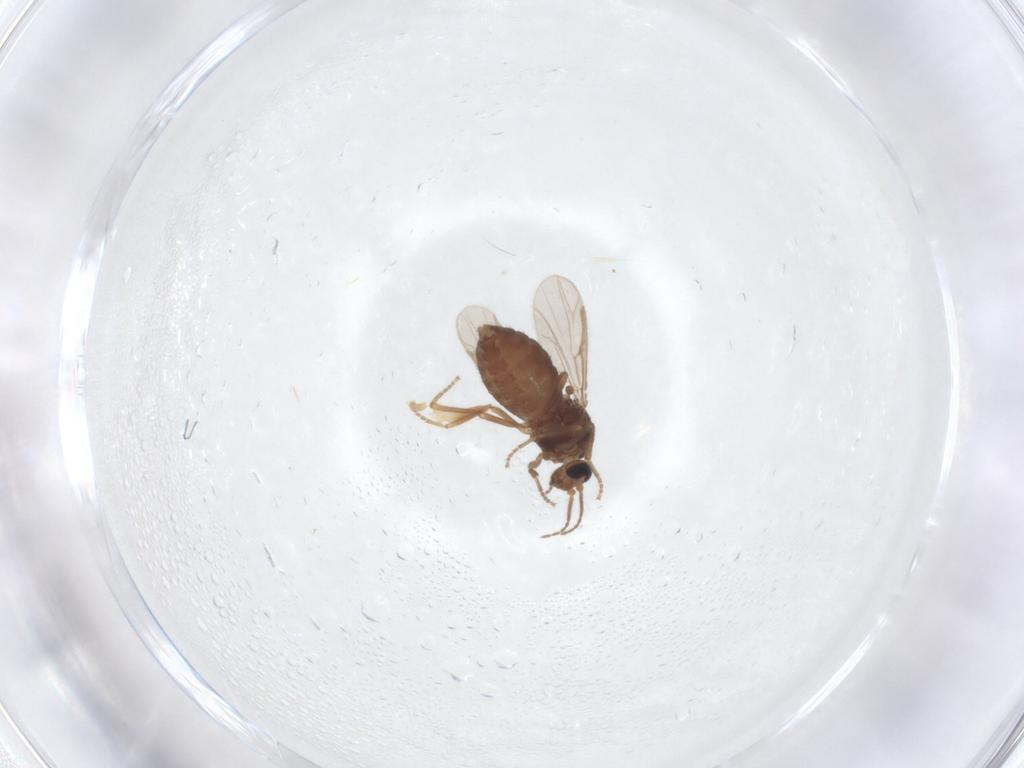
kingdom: Animalia
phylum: Arthropoda
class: Insecta
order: Diptera
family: Ceratopogonidae
